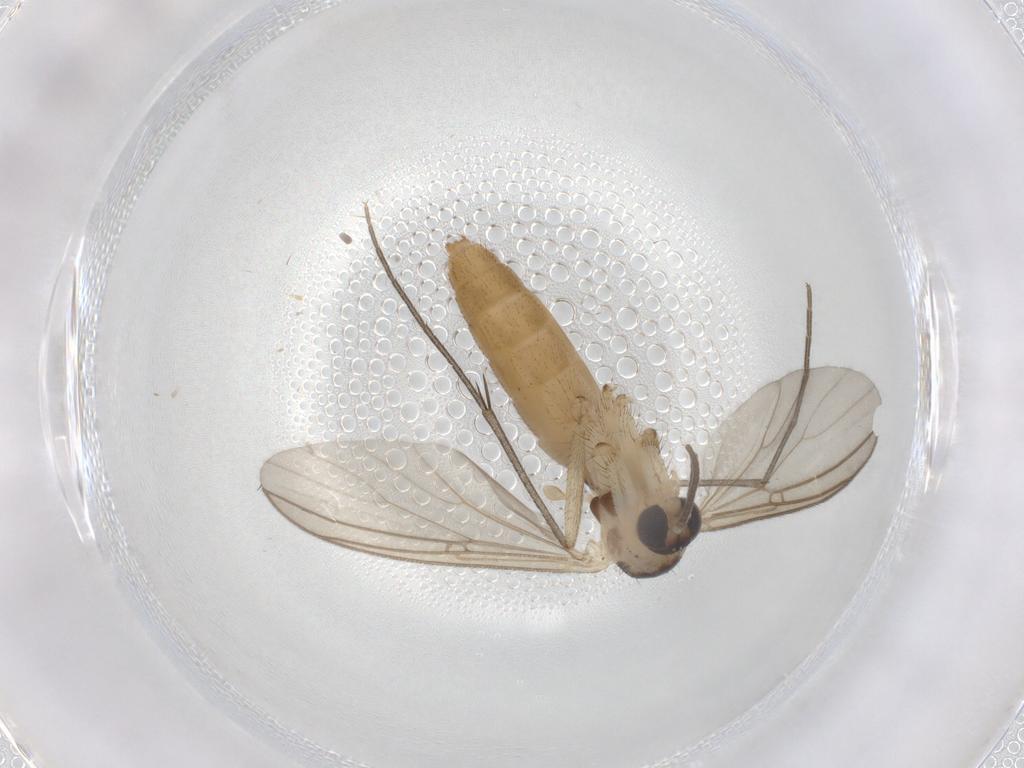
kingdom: Animalia
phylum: Arthropoda
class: Insecta
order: Diptera
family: Mycetophilidae
